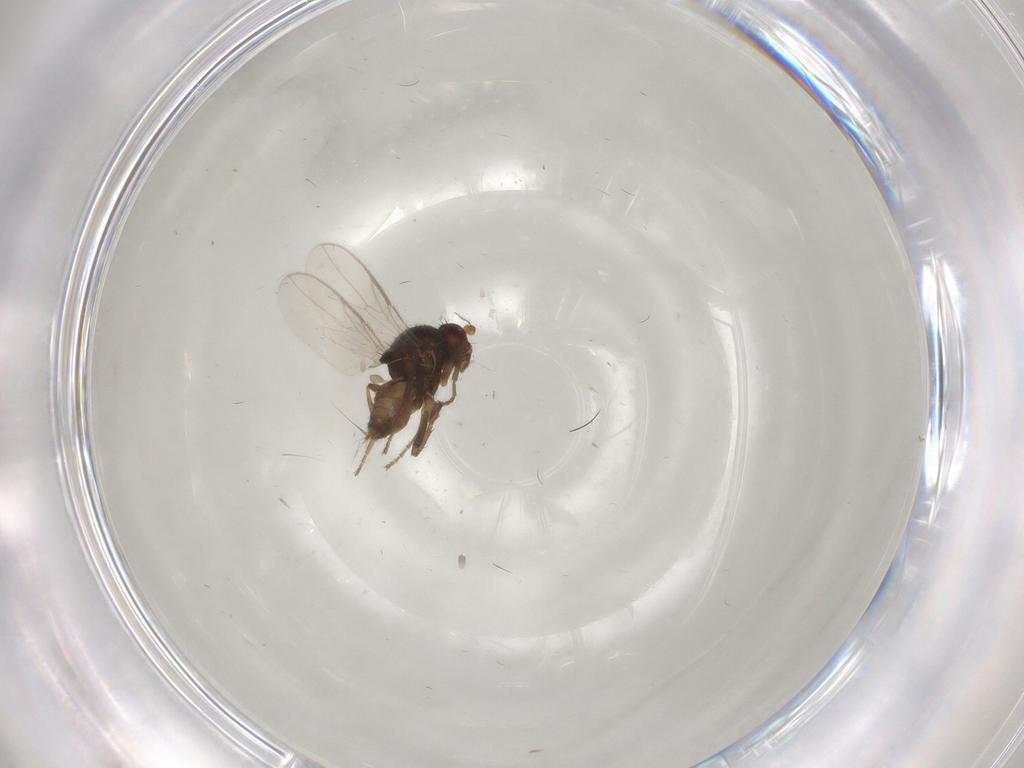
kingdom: Animalia
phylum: Arthropoda
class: Insecta
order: Diptera
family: Sphaeroceridae
